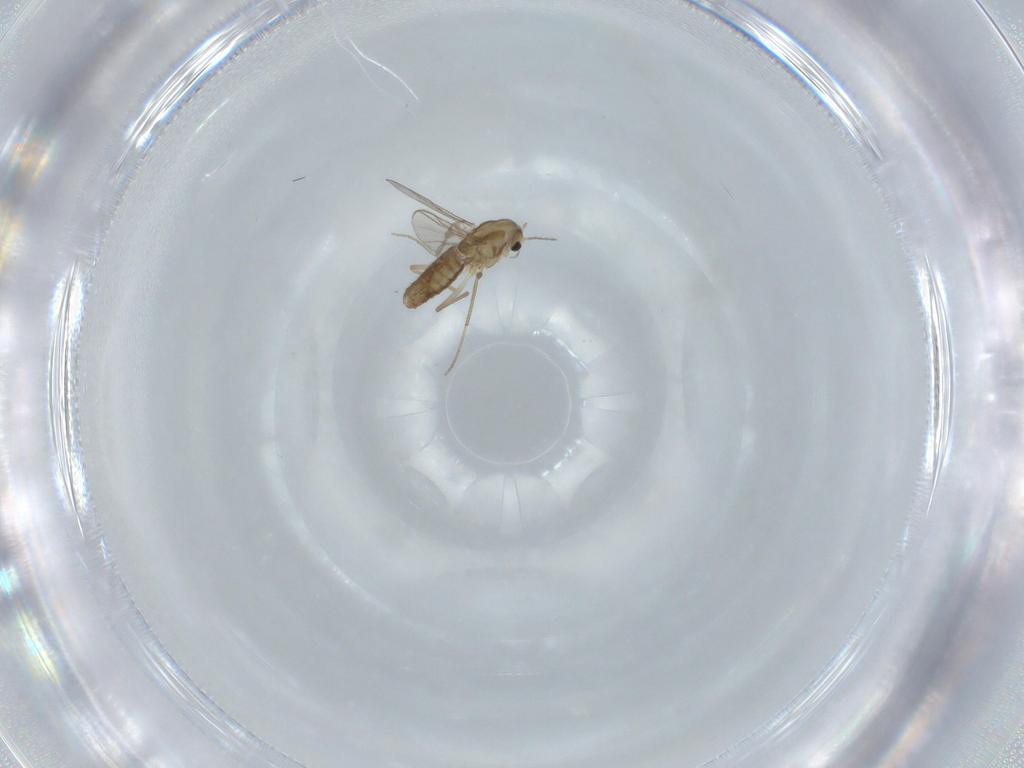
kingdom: Animalia
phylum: Arthropoda
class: Insecta
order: Diptera
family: Chironomidae
